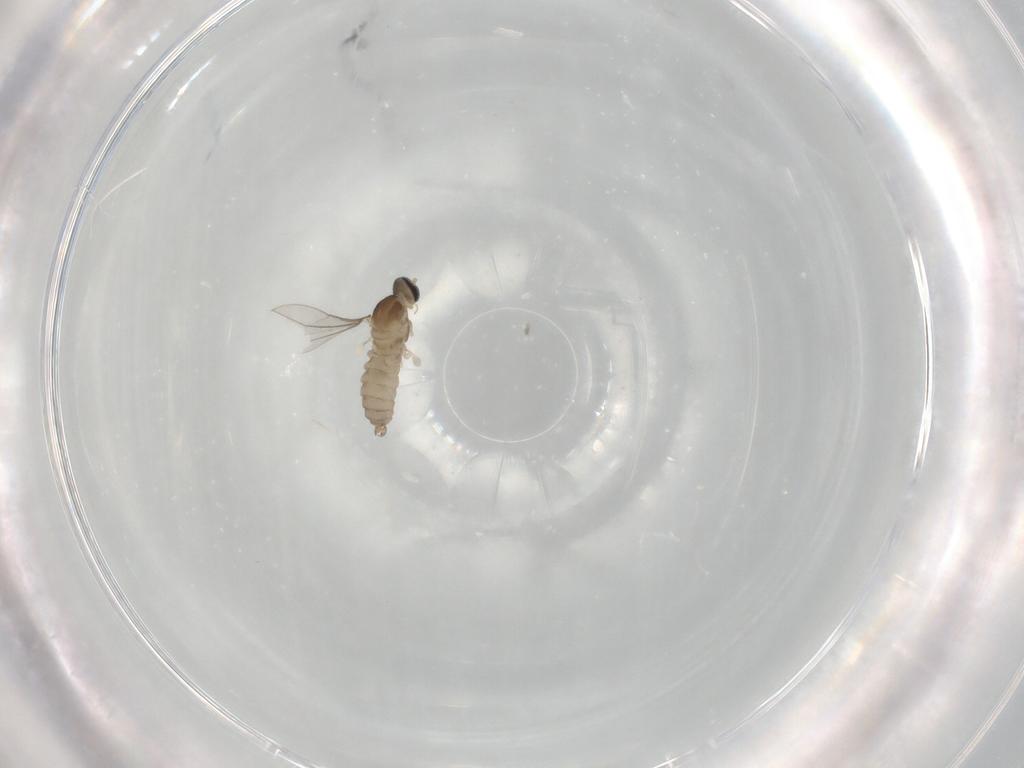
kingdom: Animalia
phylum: Arthropoda
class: Insecta
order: Diptera
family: Cecidomyiidae
